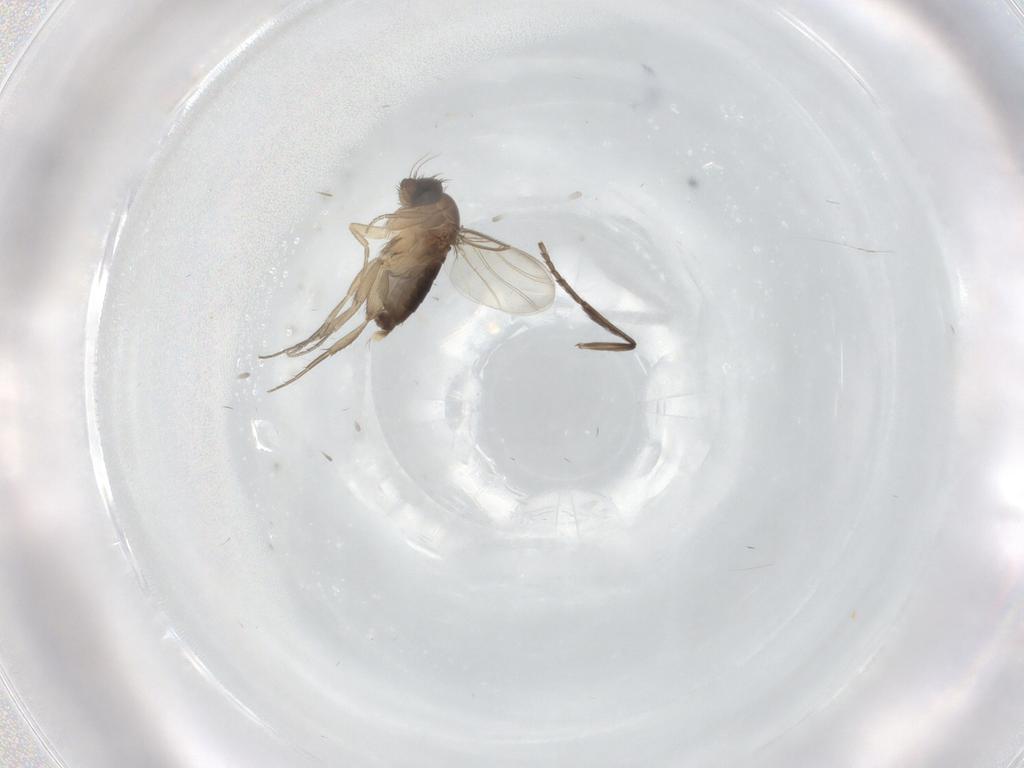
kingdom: Animalia
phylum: Arthropoda
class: Insecta
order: Diptera
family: Phoridae
